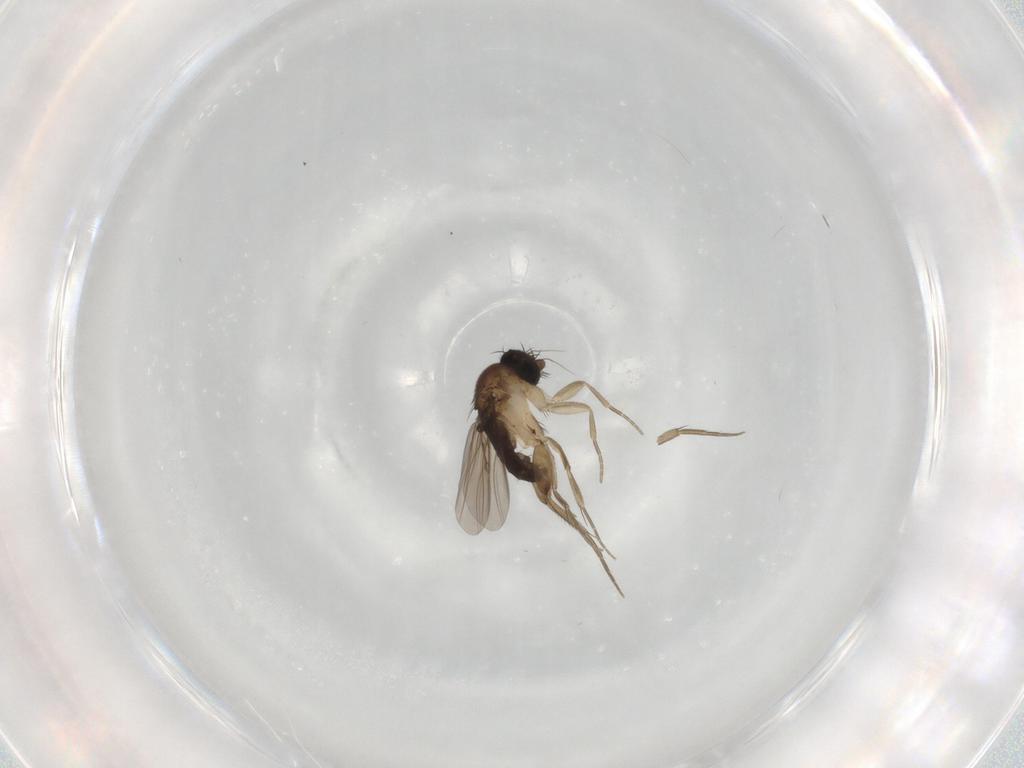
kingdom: Animalia
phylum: Arthropoda
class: Insecta
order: Diptera
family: Phoridae
